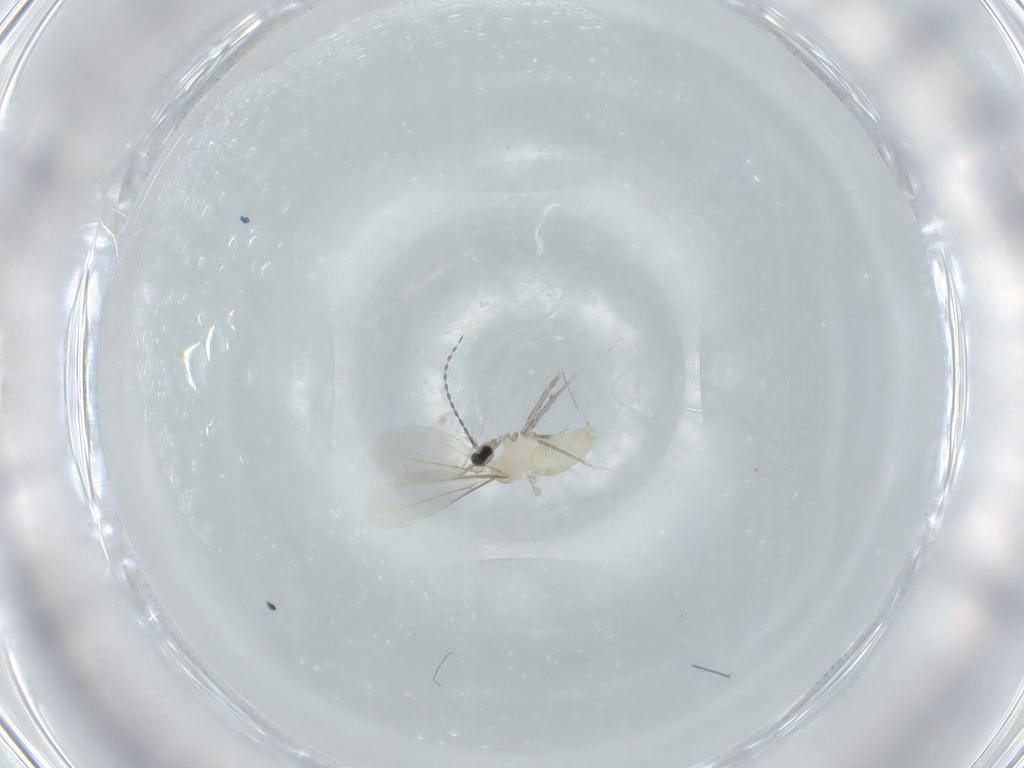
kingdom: Animalia
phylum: Arthropoda
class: Insecta
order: Diptera
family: Cecidomyiidae
